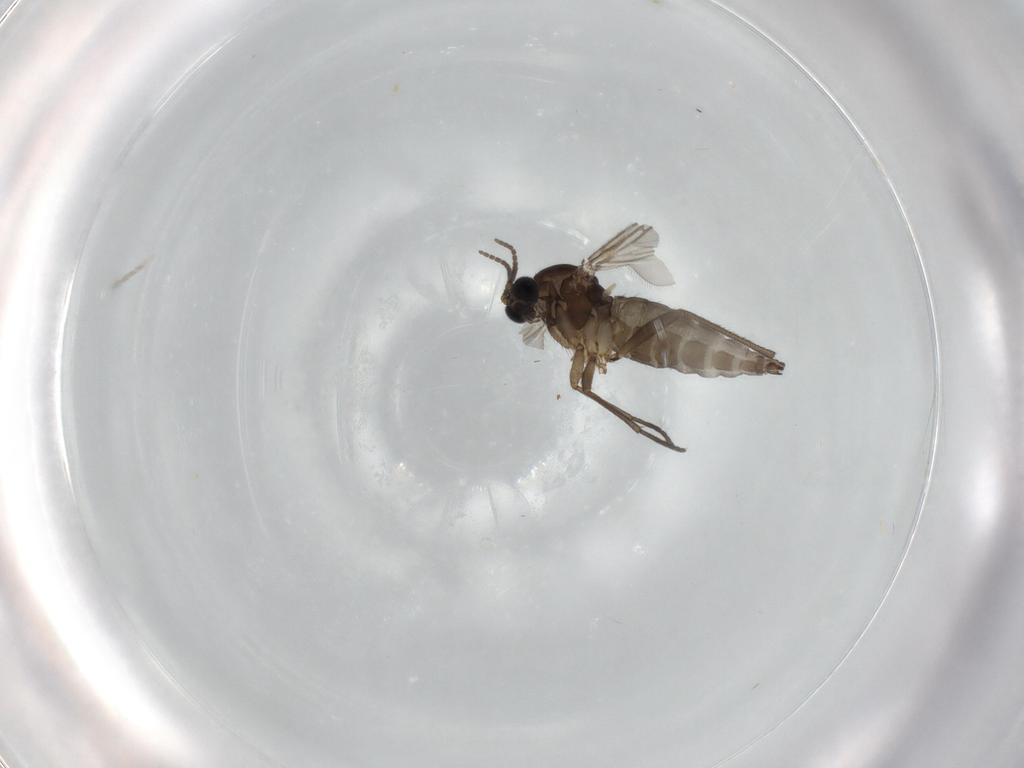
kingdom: Animalia
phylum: Arthropoda
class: Insecta
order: Diptera
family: Sciaridae
